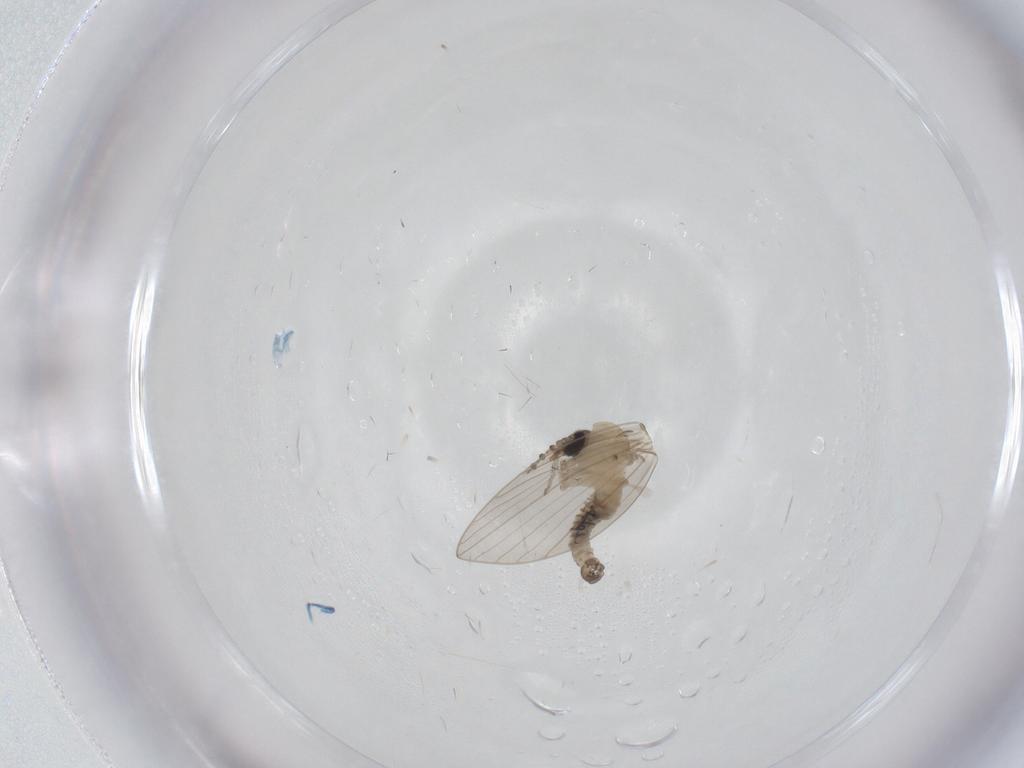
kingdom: Animalia
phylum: Arthropoda
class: Insecta
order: Diptera
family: Psychodidae
